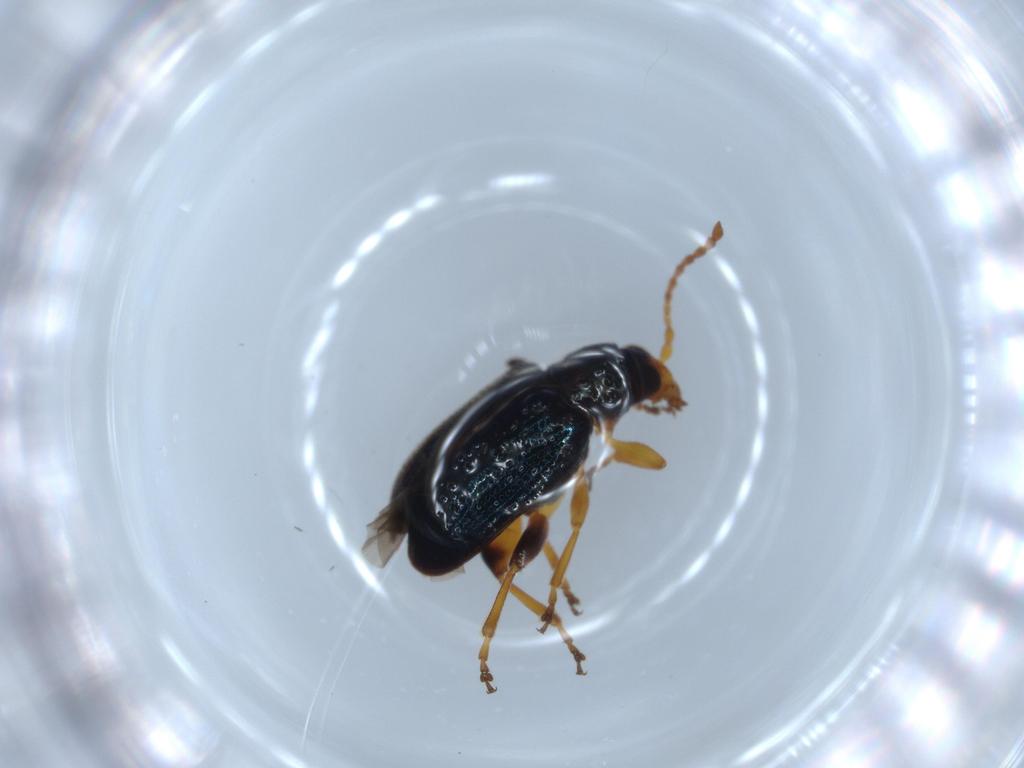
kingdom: Animalia
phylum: Arthropoda
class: Insecta
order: Coleoptera
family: Chrysomelidae
